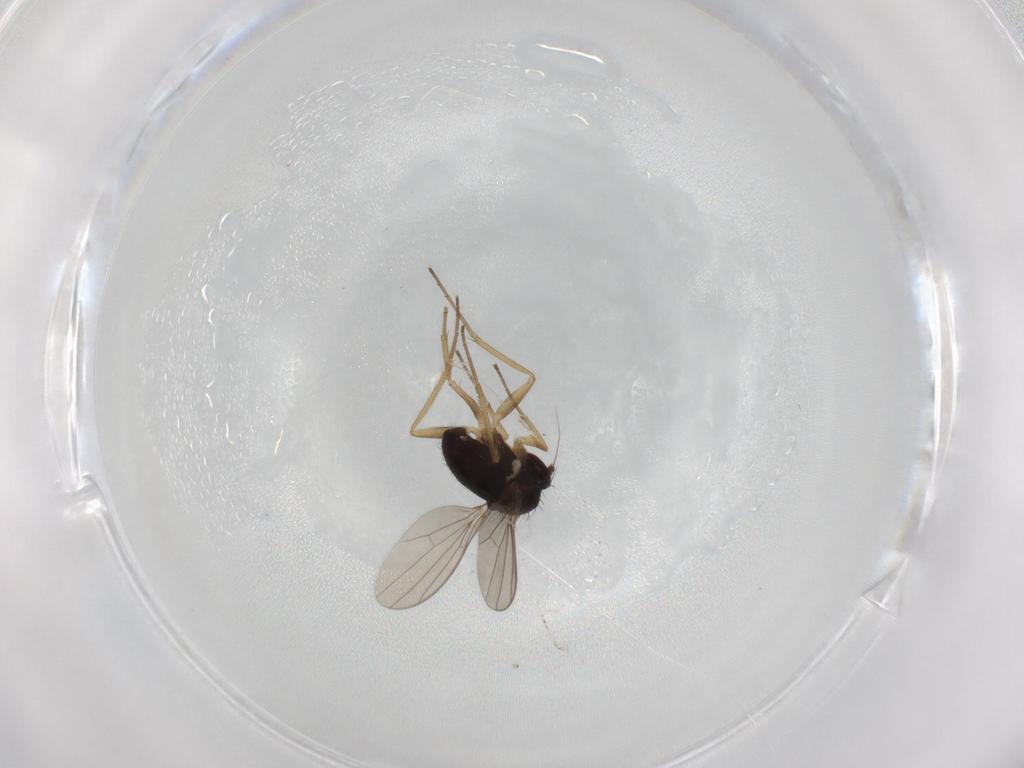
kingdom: Animalia
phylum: Arthropoda
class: Insecta
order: Diptera
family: Dolichopodidae
